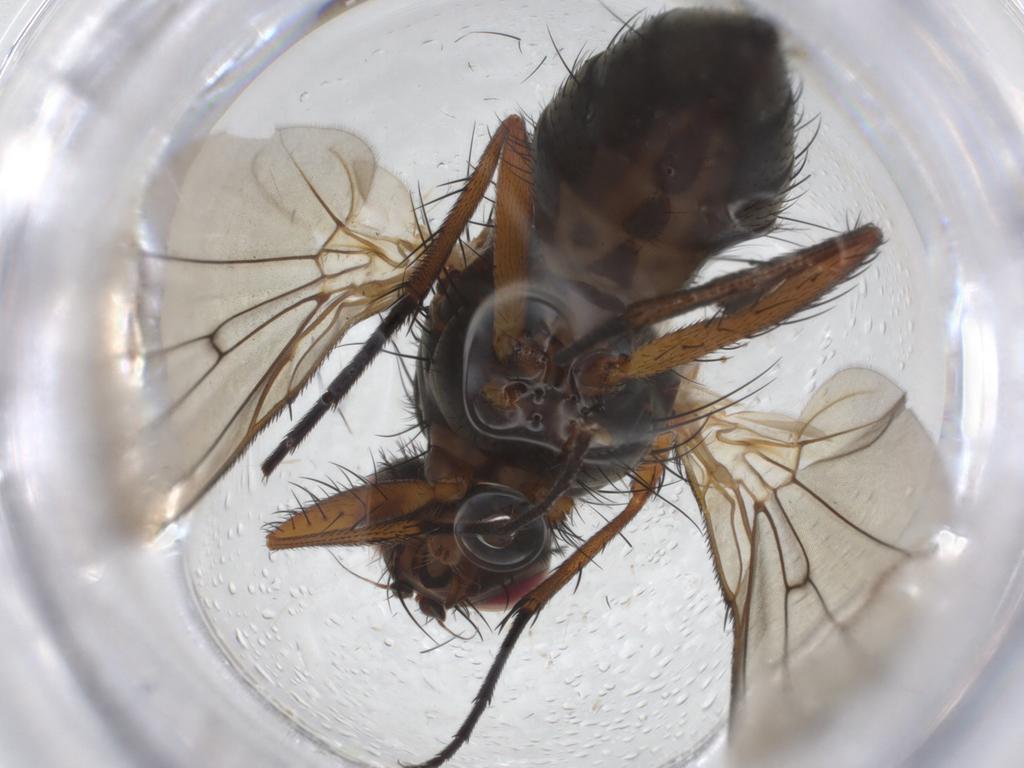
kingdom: Animalia
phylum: Arthropoda
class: Insecta
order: Diptera
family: Anthomyiidae
